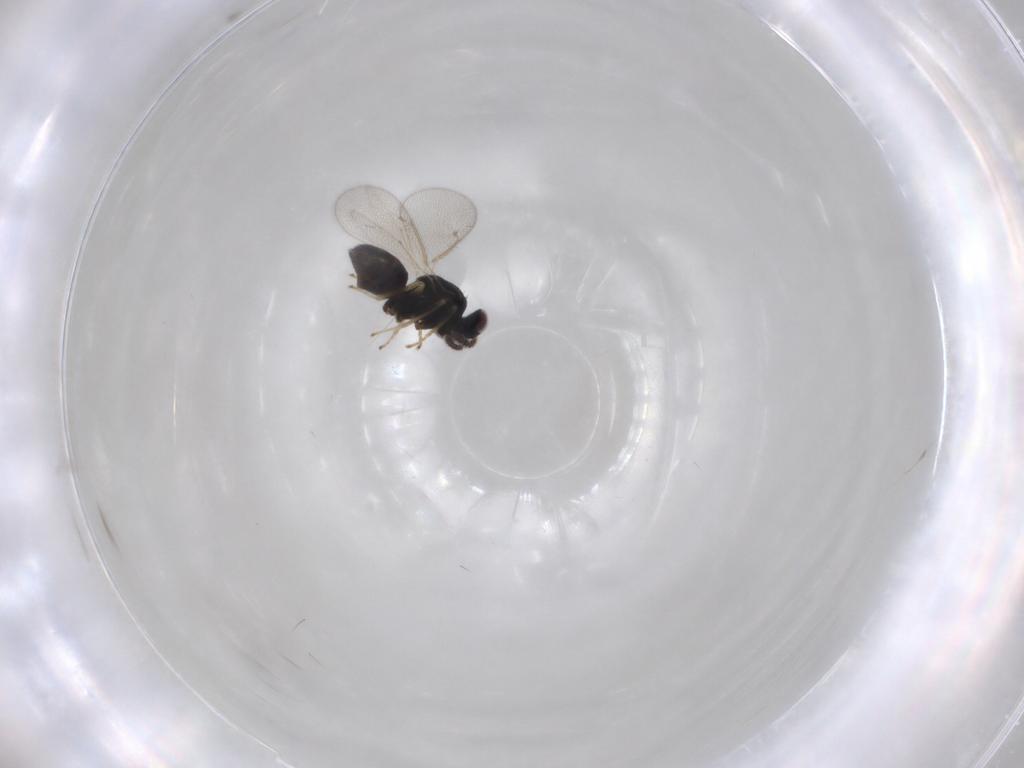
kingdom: Animalia
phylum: Arthropoda
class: Insecta
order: Hymenoptera
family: Eulophidae
